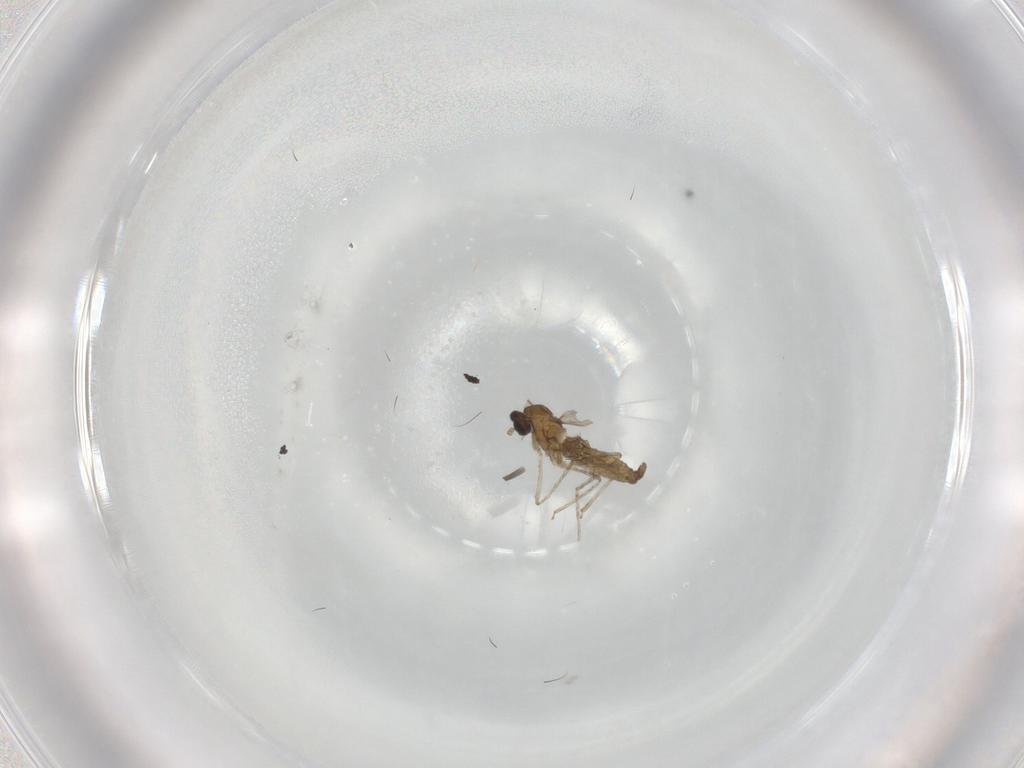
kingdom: Animalia
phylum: Arthropoda
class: Insecta
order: Diptera
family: Cecidomyiidae
